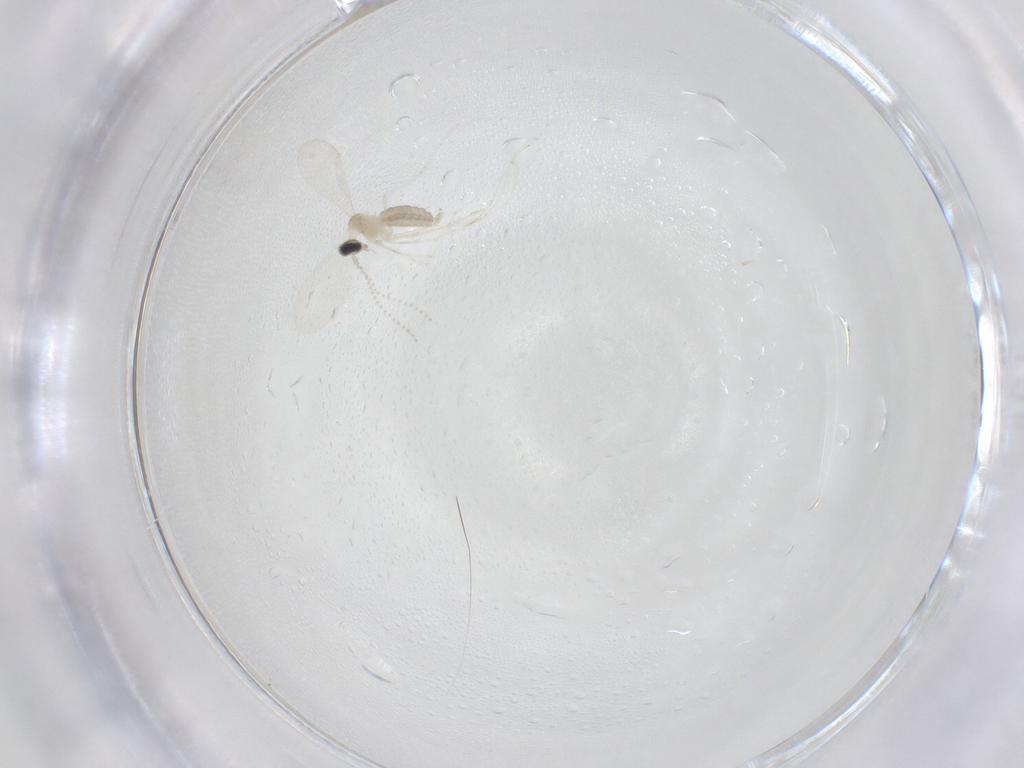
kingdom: Animalia
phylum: Arthropoda
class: Insecta
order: Diptera
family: Cecidomyiidae
